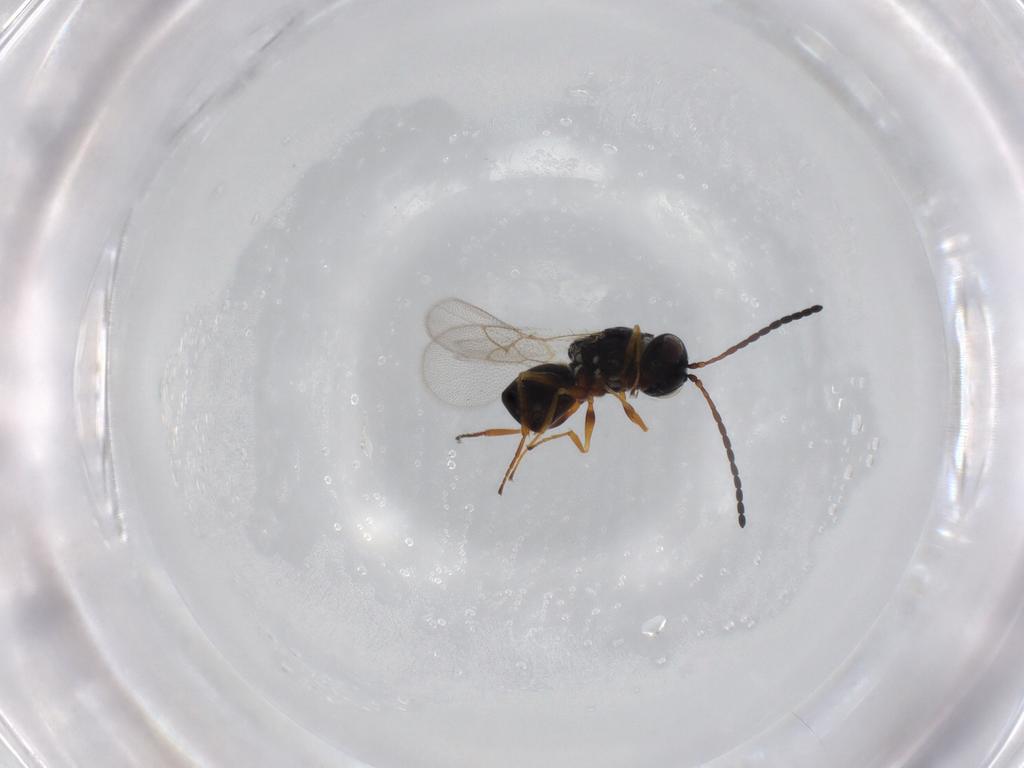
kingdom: Animalia
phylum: Arthropoda
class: Insecta
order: Hymenoptera
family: Figitidae
